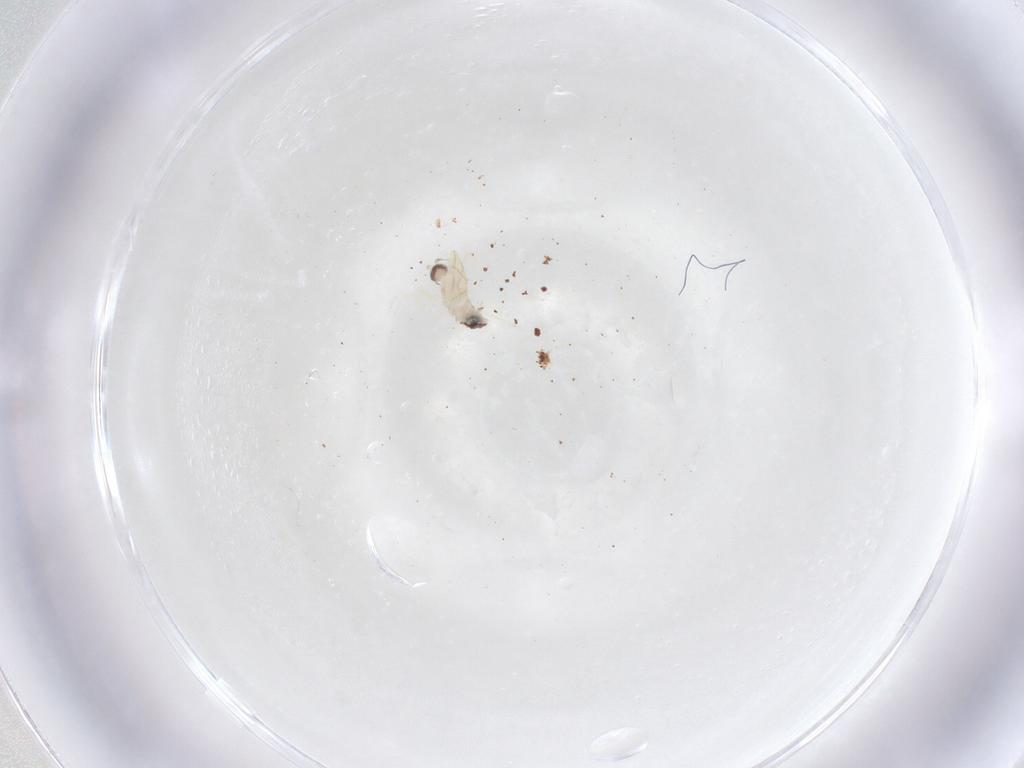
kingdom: Animalia
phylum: Arthropoda
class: Insecta
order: Diptera
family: Cecidomyiidae
